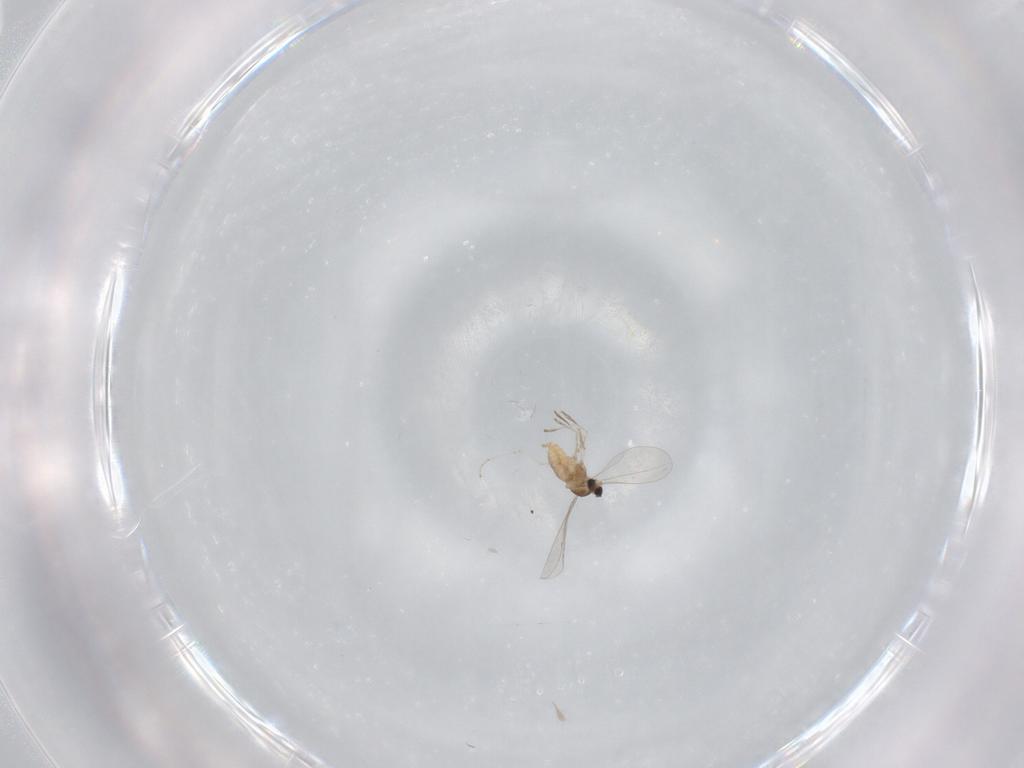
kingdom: Animalia
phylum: Arthropoda
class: Insecta
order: Diptera
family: Cecidomyiidae
